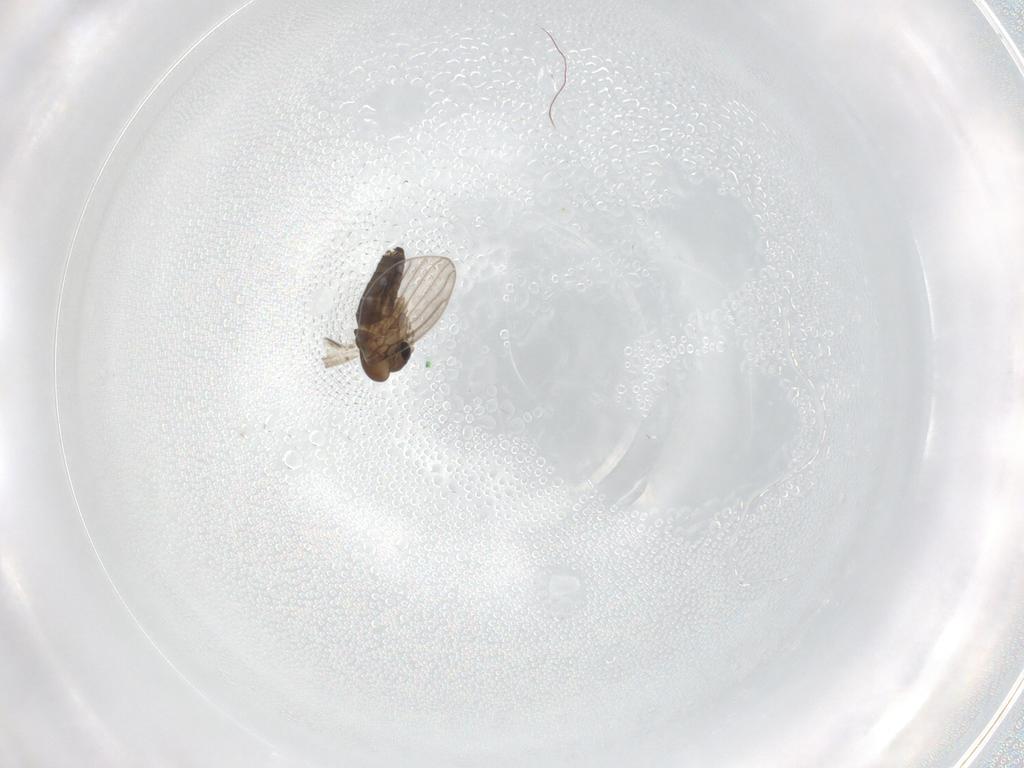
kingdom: Animalia
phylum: Arthropoda
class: Insecta
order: Diptera
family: Psychodidae
